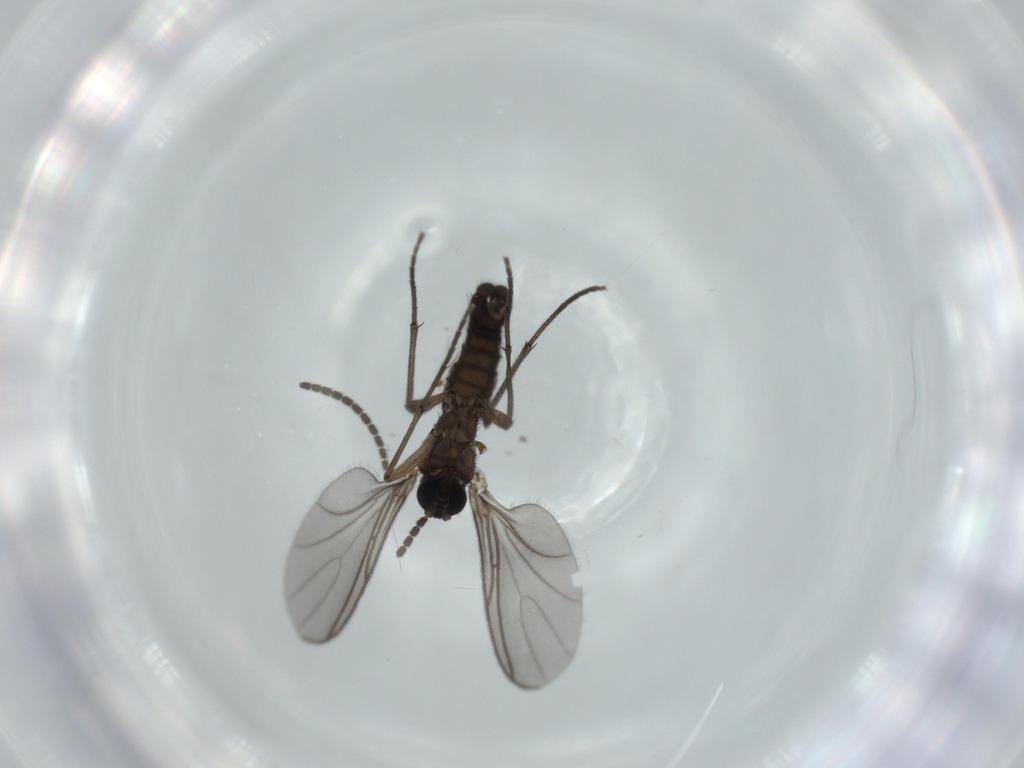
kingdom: Animalia
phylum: Arthropoda
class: Insecta
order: Diptera
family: Sciaridae
